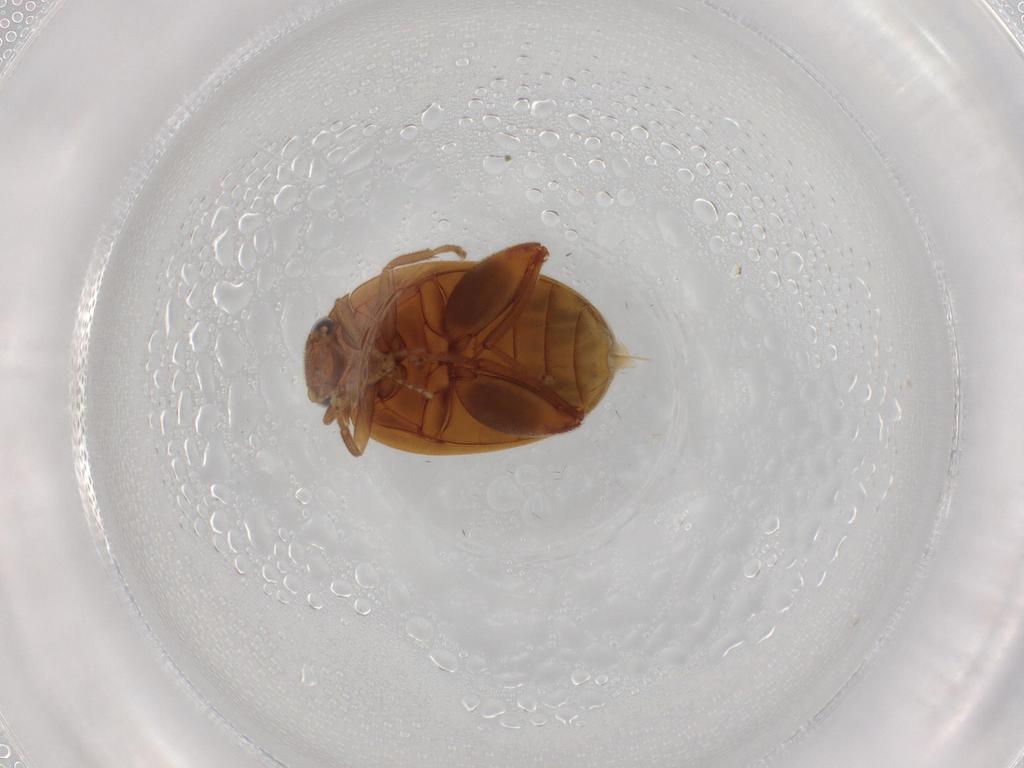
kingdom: Animalia
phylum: Arthropoda
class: Insecta
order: Coleoptera
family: Scirtidae
